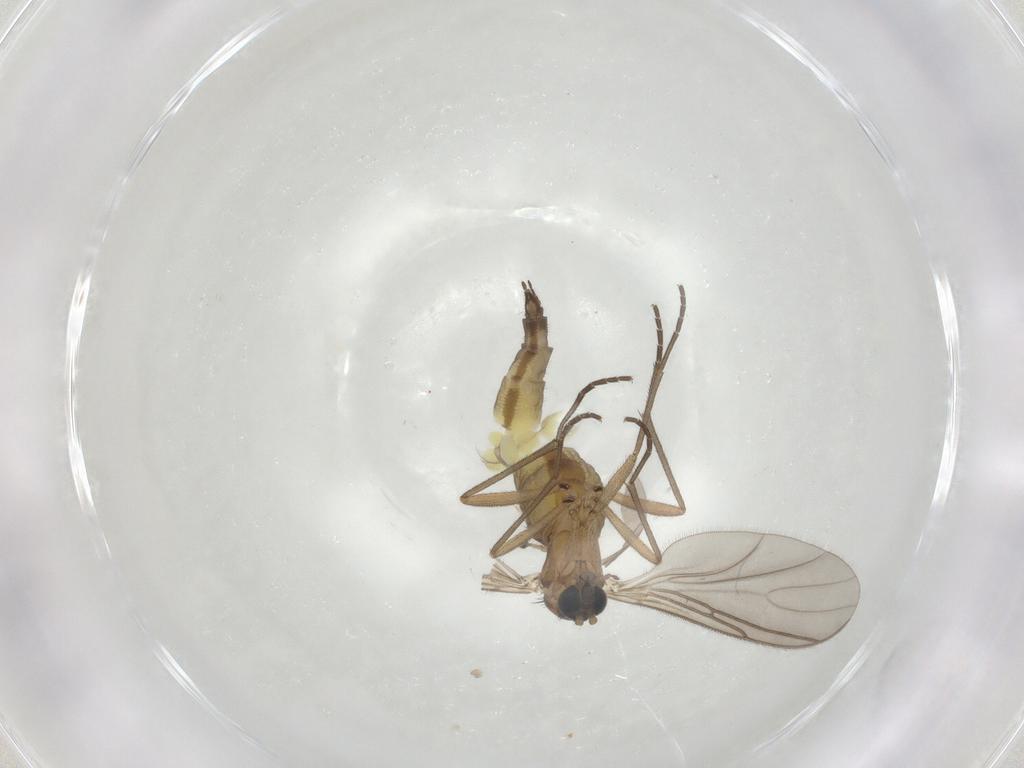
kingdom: Animalia
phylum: Arthropoda
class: Insecta
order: Diptera
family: Sciaridae
